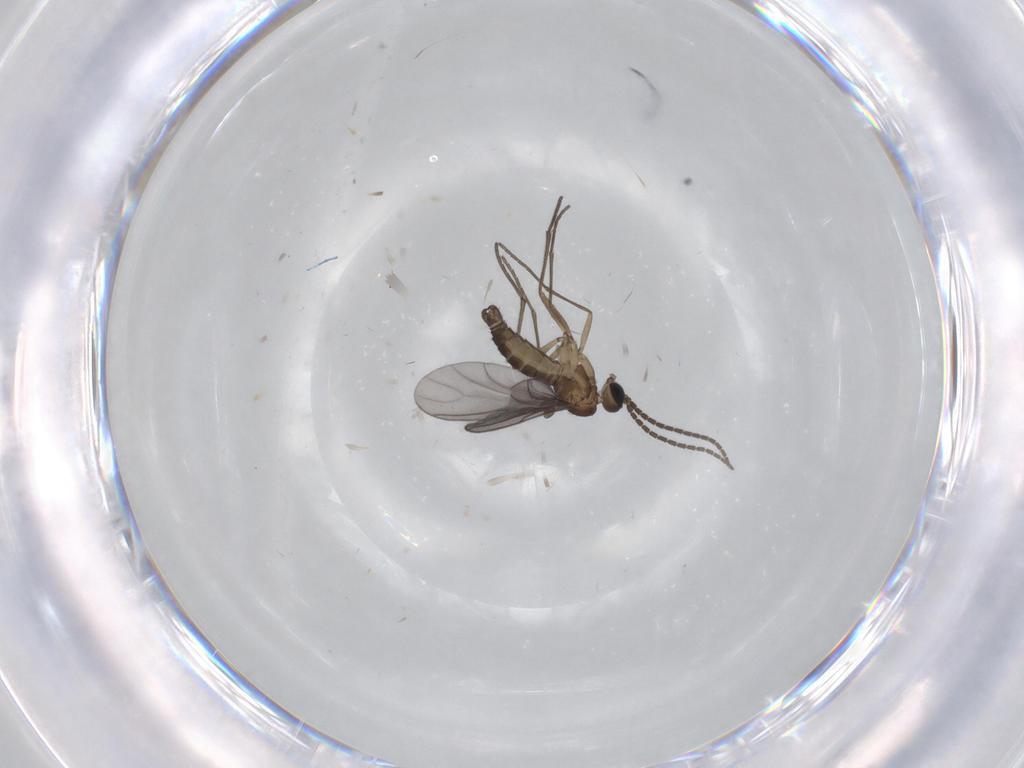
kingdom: Animalia
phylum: Arthropoda
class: Insecta
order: Diptera
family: Sciaridae
